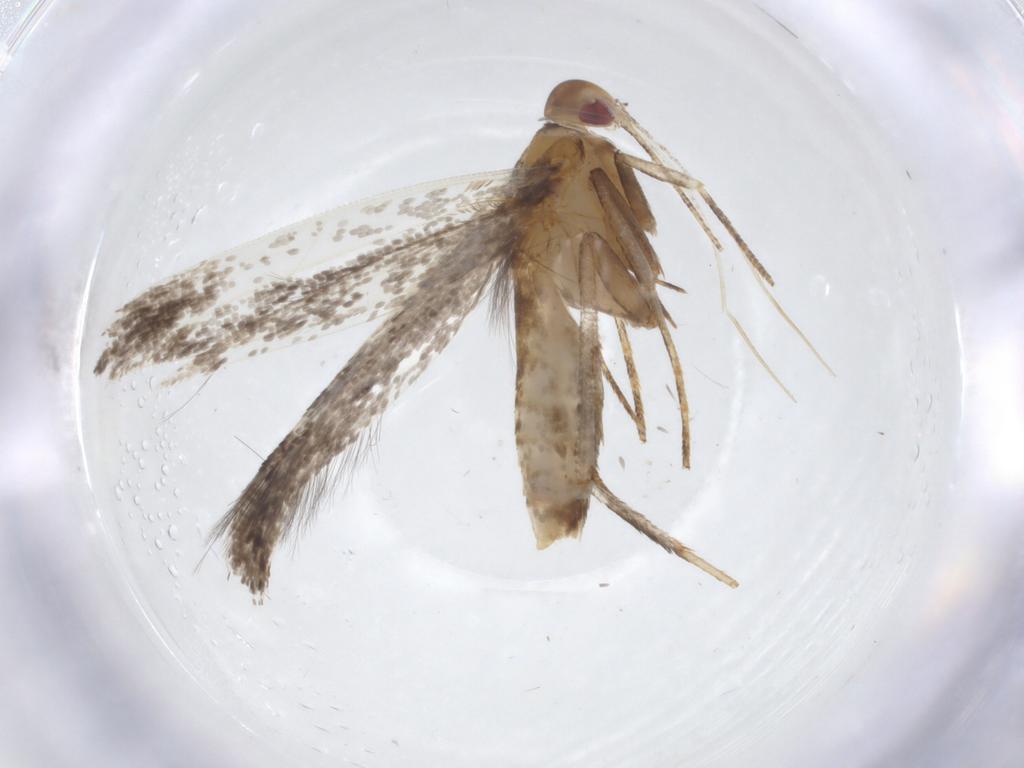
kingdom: Animalia
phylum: Arthropoda
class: Insecta
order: Lepidoptera
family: Cosmopterigidae
